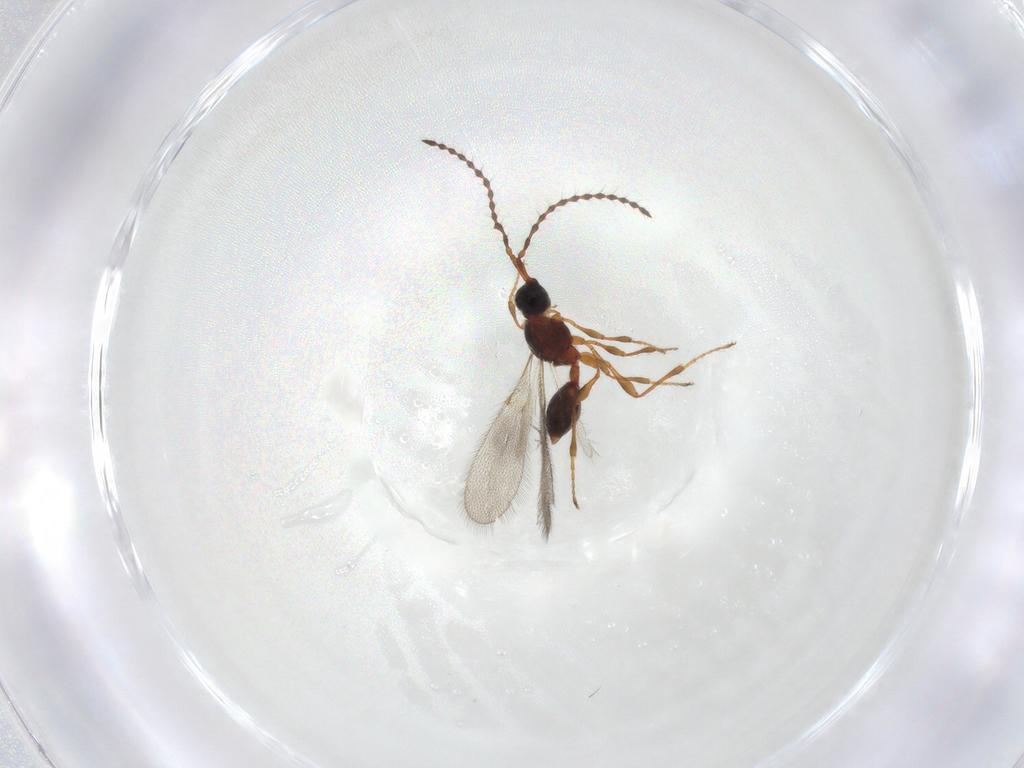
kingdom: Animalia
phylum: Arthropoda
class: Insecta
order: Hymenoptera
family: Diapriidae
